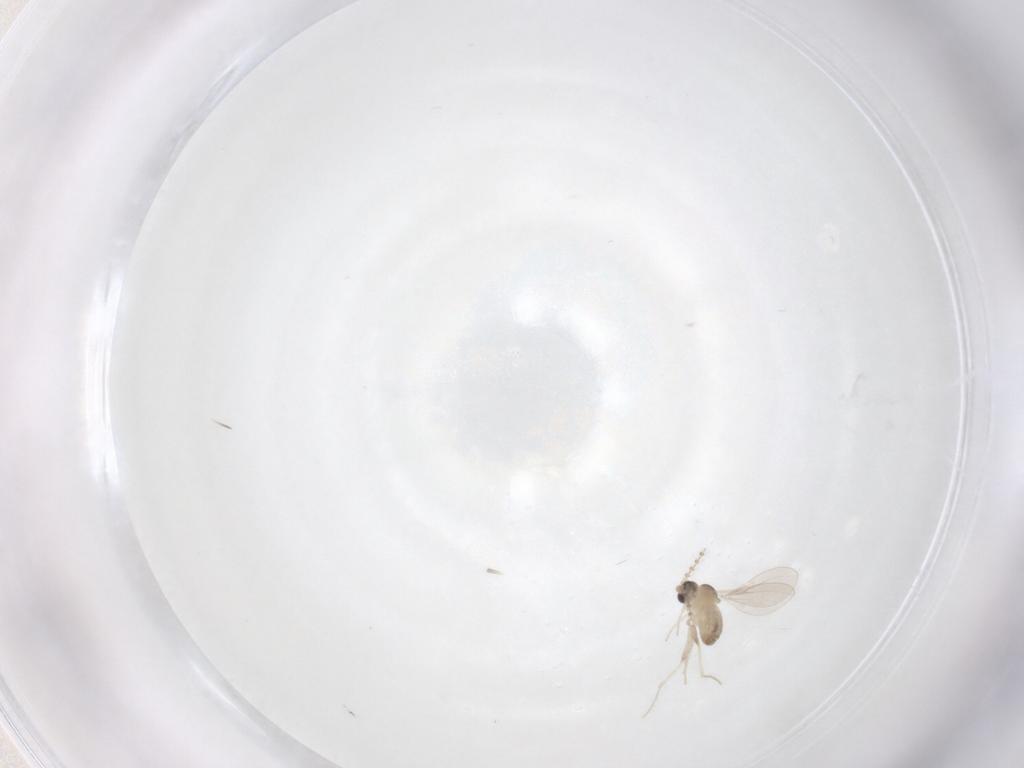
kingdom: Animalia
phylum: Arthropoda
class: Insecta
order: Diptera
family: Cecidomyiidae
